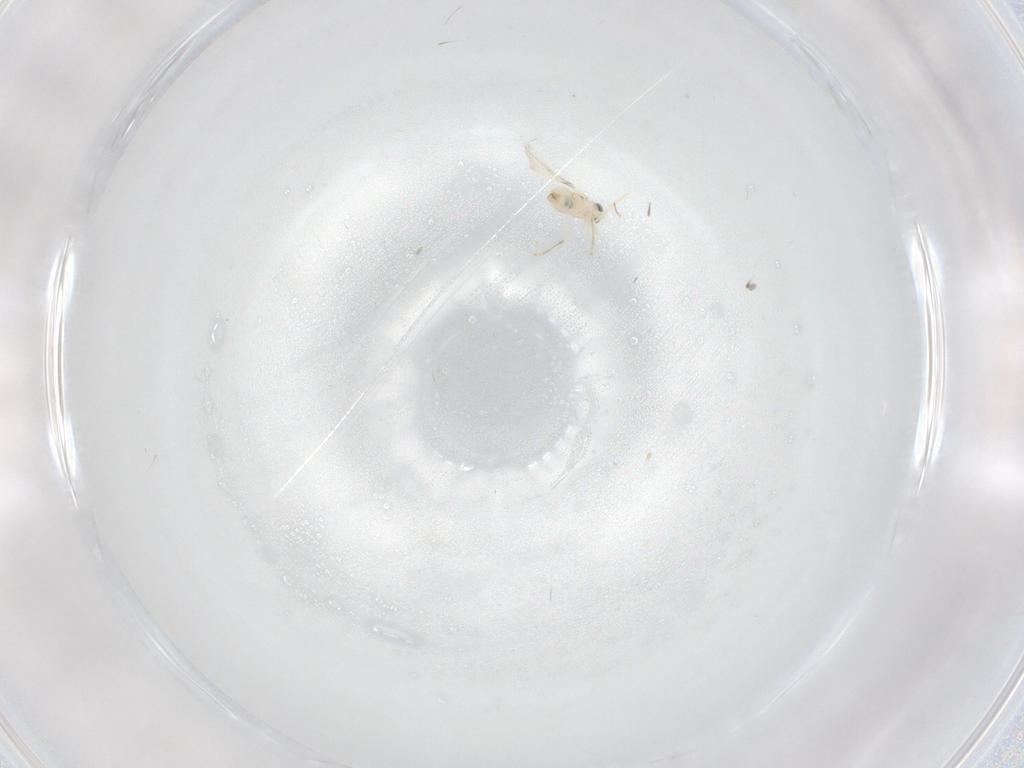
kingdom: Animalia
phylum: Arthropoda
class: Insecta
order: Diptera
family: Cecidomyiidae
